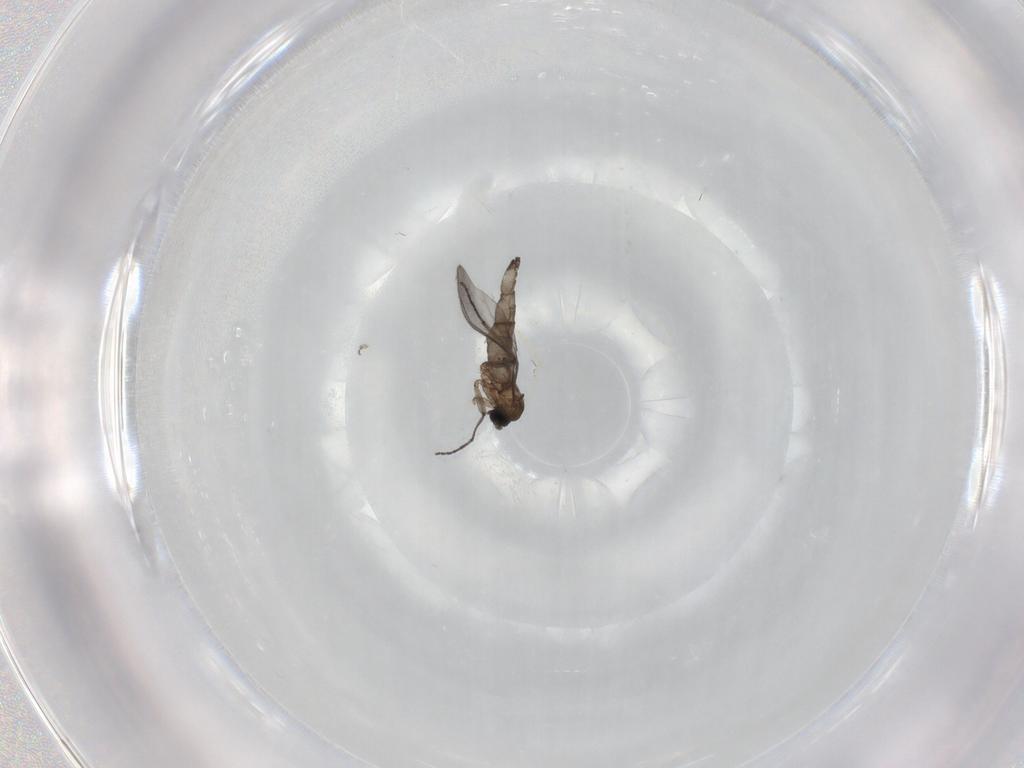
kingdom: Animalia
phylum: Arthropoda
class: Insecta
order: Diptera
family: Sciaridae
